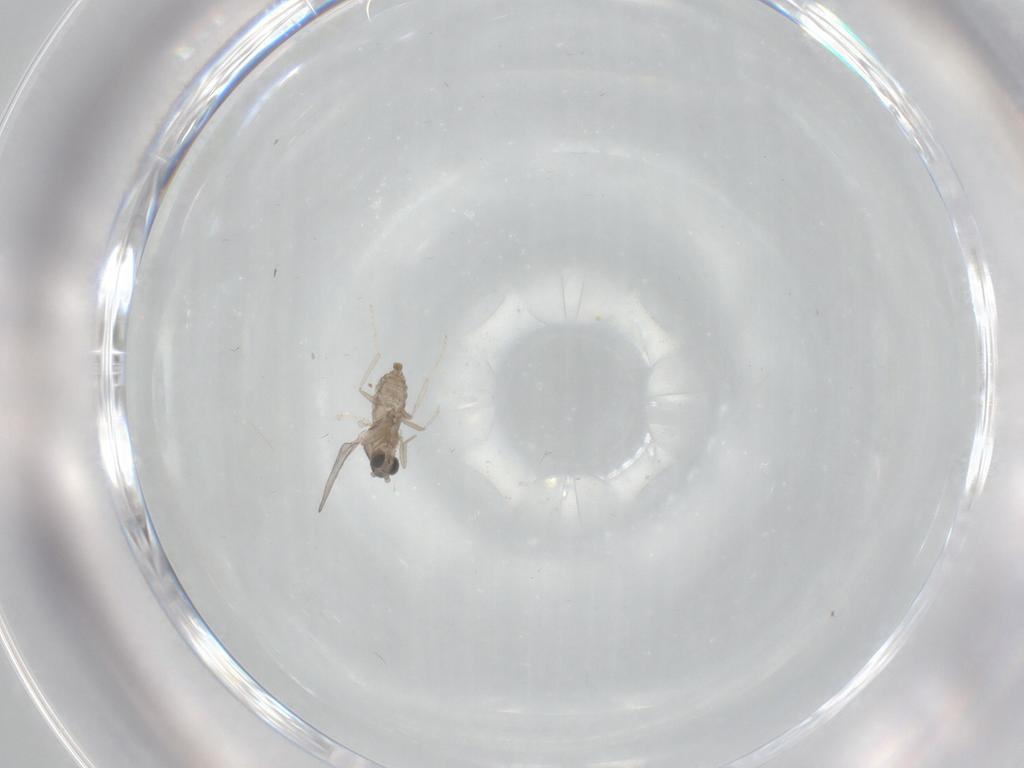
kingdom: Animalia
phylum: Arthropoda
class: Insecta
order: Diptera
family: Cecidomyiidae
